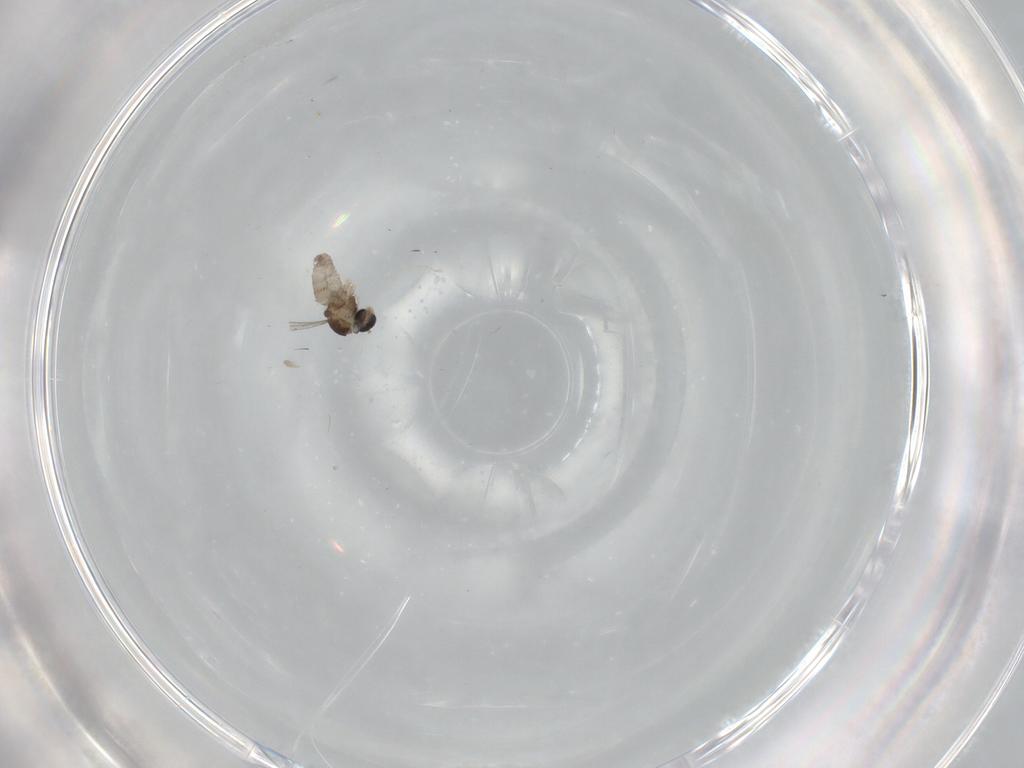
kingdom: Animalia
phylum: Arthropoda
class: Insecta
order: Diptera
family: Cecidomyiidae
